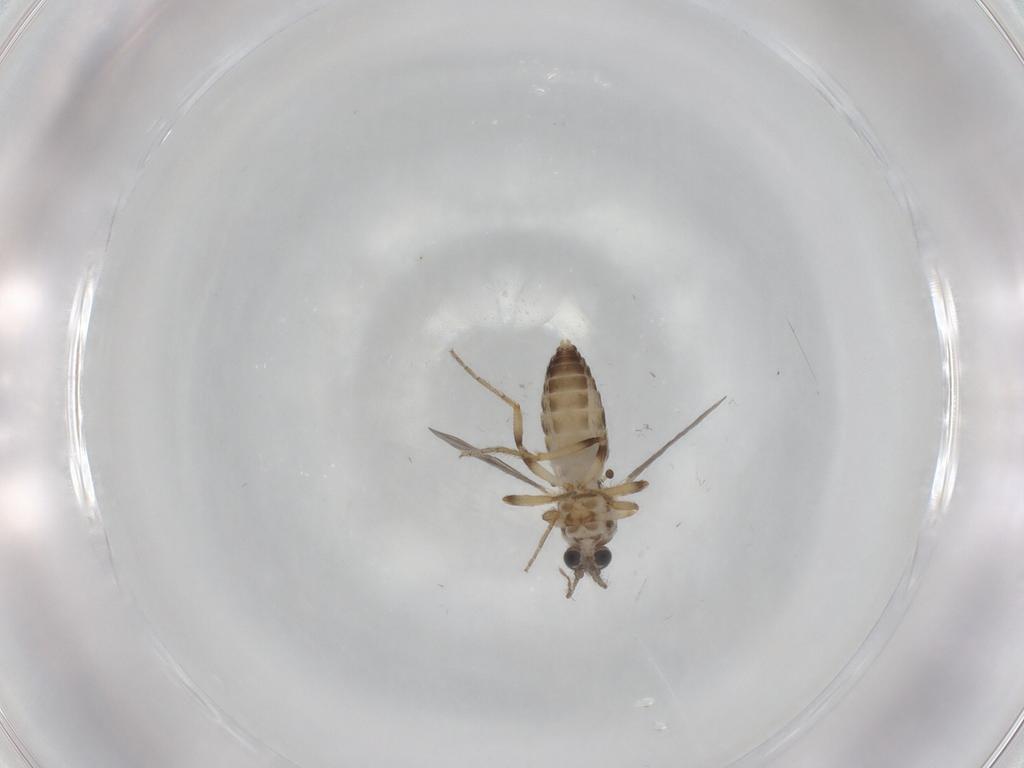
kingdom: Animalia
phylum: Arthropoda
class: Insecta
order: Diptera
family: Ceratopogonidae
